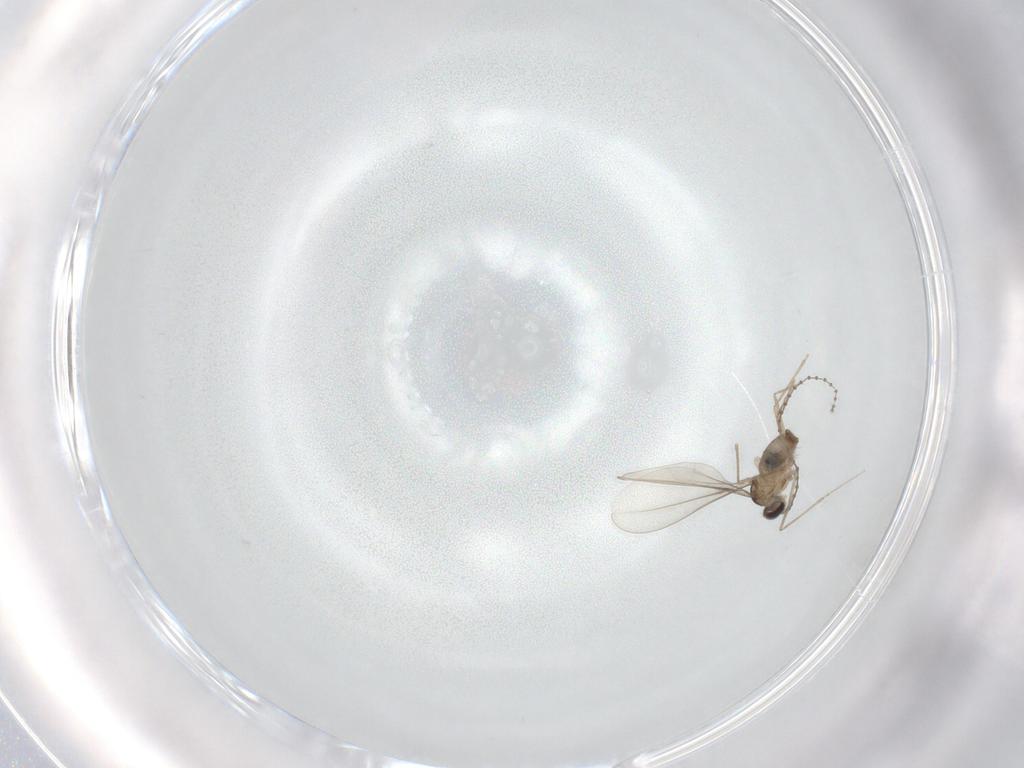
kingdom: Animalia
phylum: Arthropoda
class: Insecta
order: Diptera
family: Cecidomyiidae
